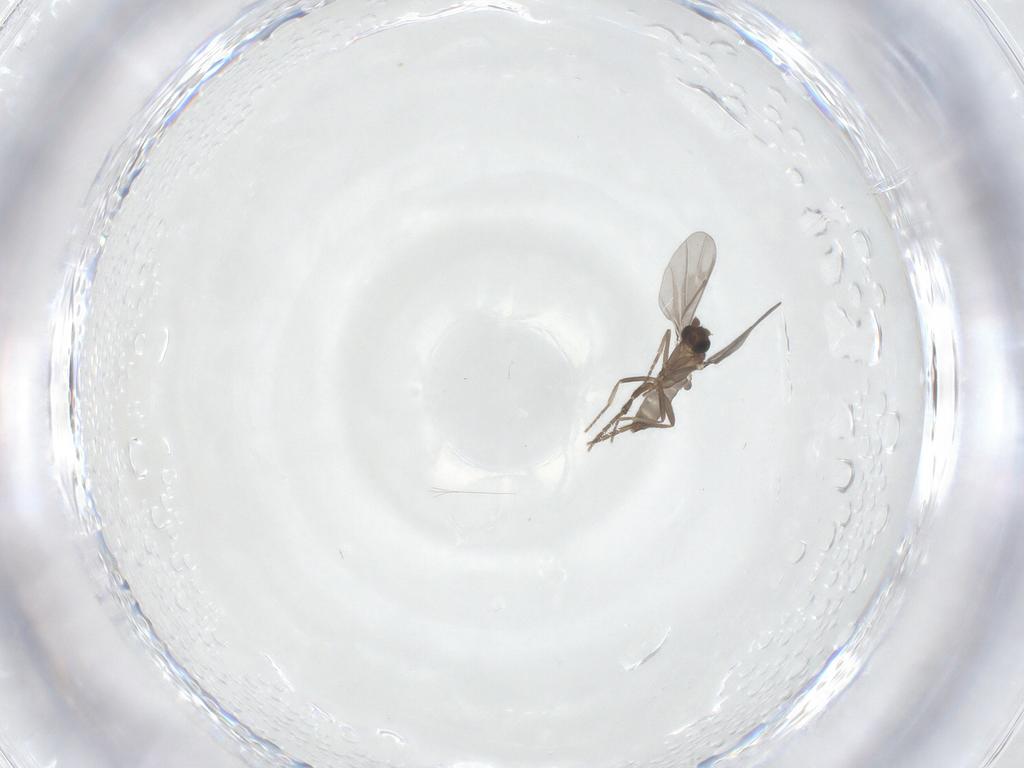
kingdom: Animalia
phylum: Arthropoda
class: Insecta
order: Diptera
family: Phoridae
